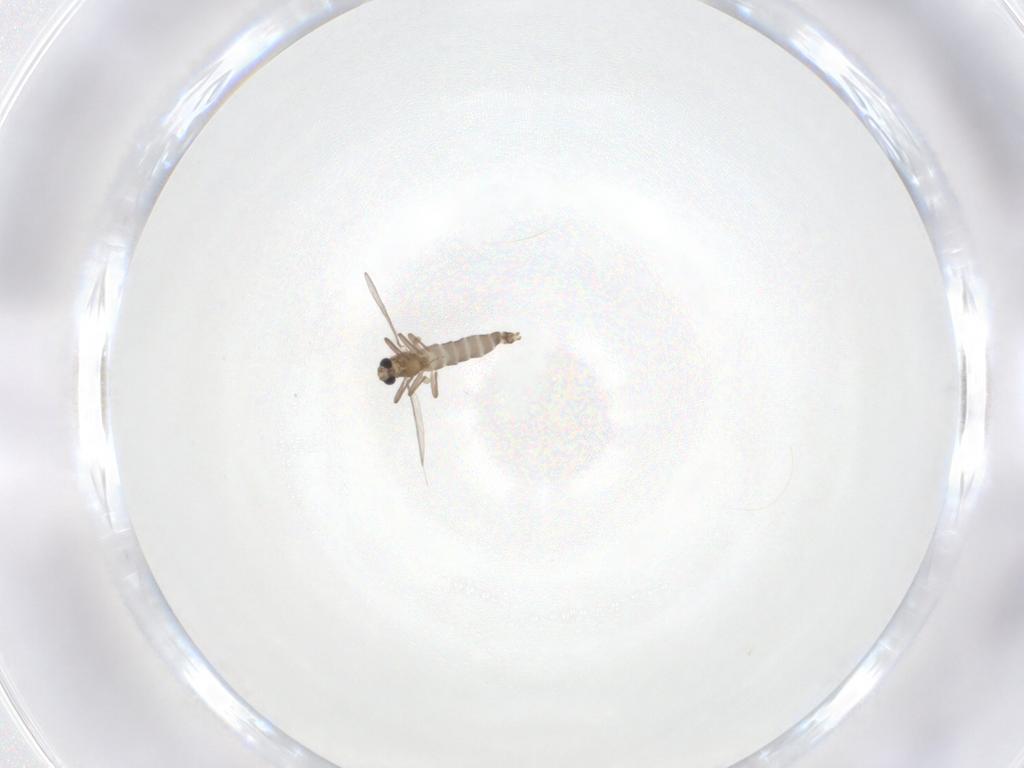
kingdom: Animalia
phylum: Arthropoda
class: Insecta
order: Diptera
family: Chironomidae
